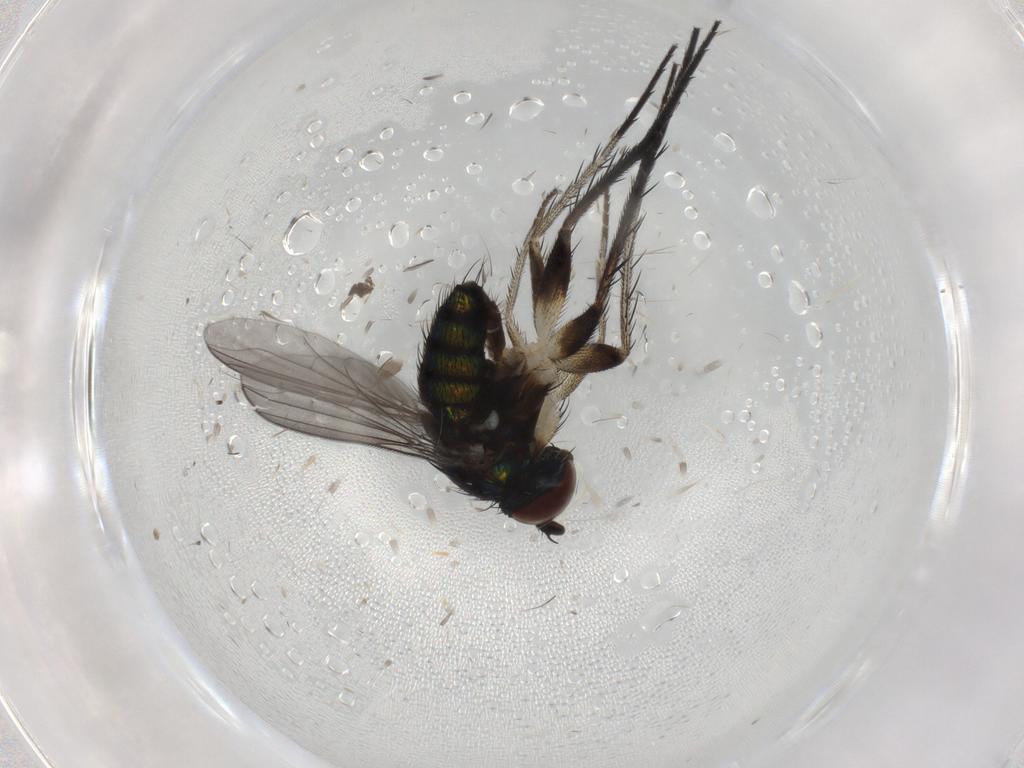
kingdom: Animalia
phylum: Arthropoda
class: Insecta
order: Diptera
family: Dolichopodidae
